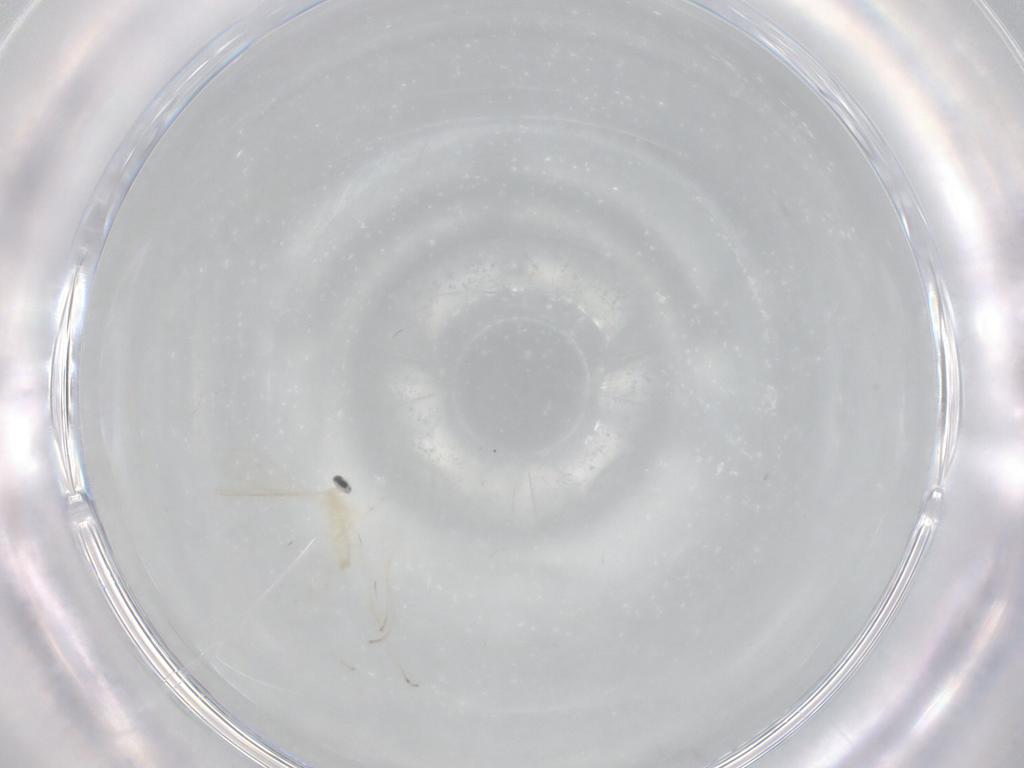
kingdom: Animalia
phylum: Arthropoda
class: Insecta
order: Diptera
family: Cecidomyiidae
